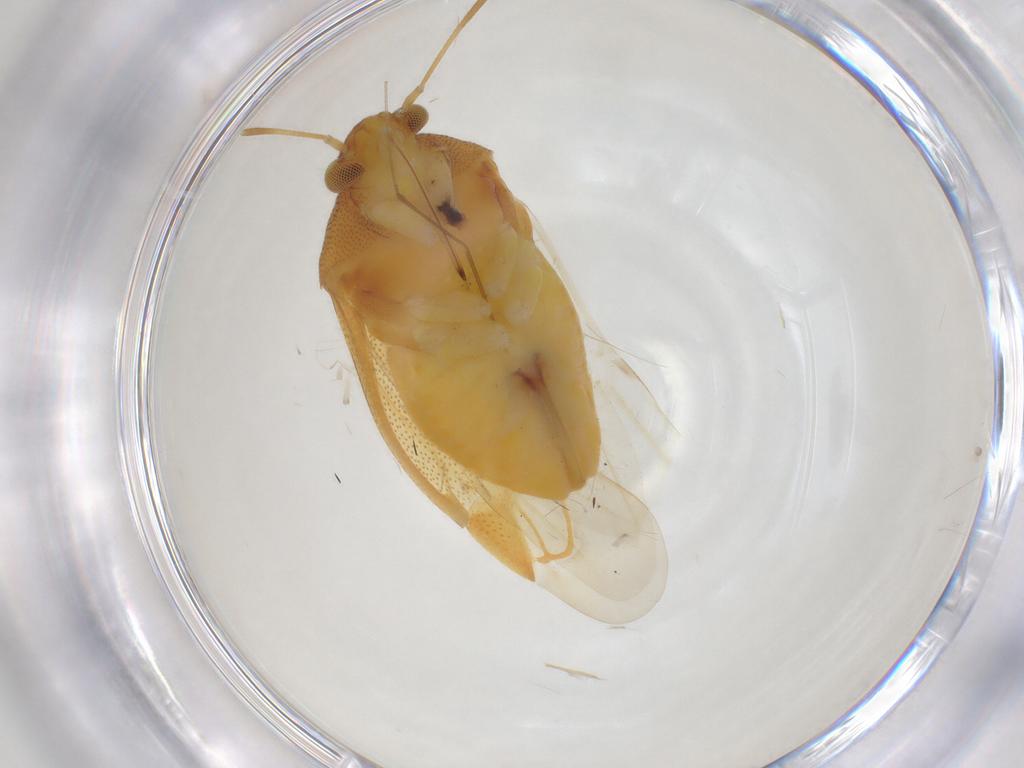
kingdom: Animalia
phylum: Arthropoda
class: Insecta
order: Hemiptera
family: Miridae
